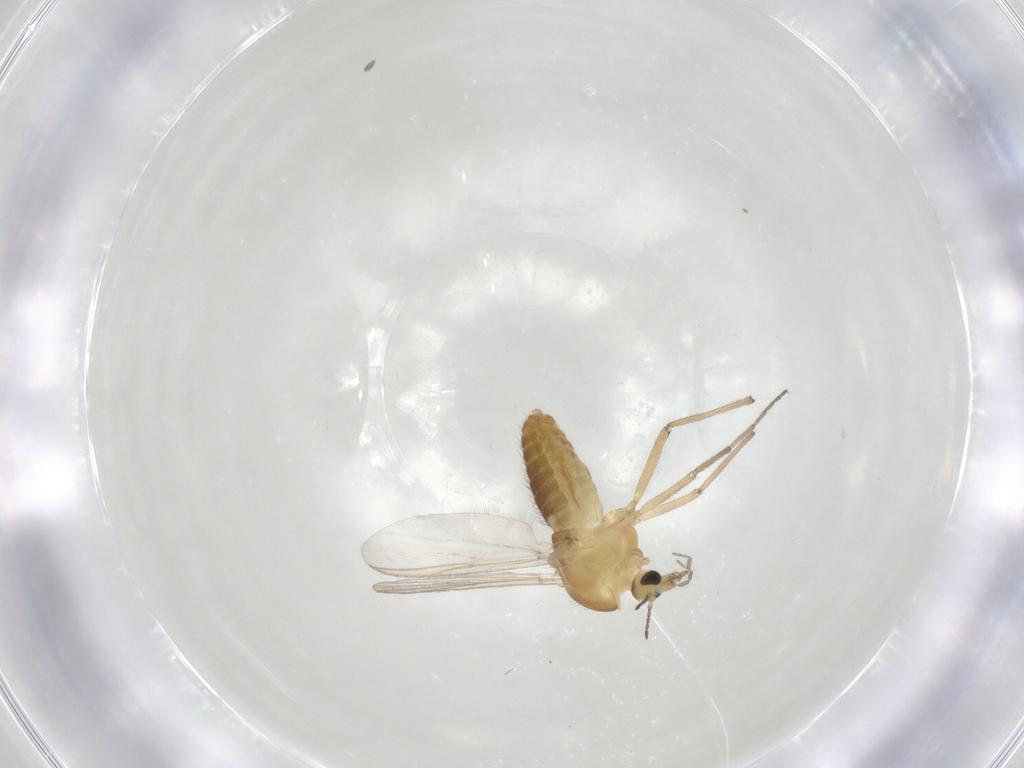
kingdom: Animalia
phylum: Arthropoda
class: Insecta
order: Diptera
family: Chironomidae
